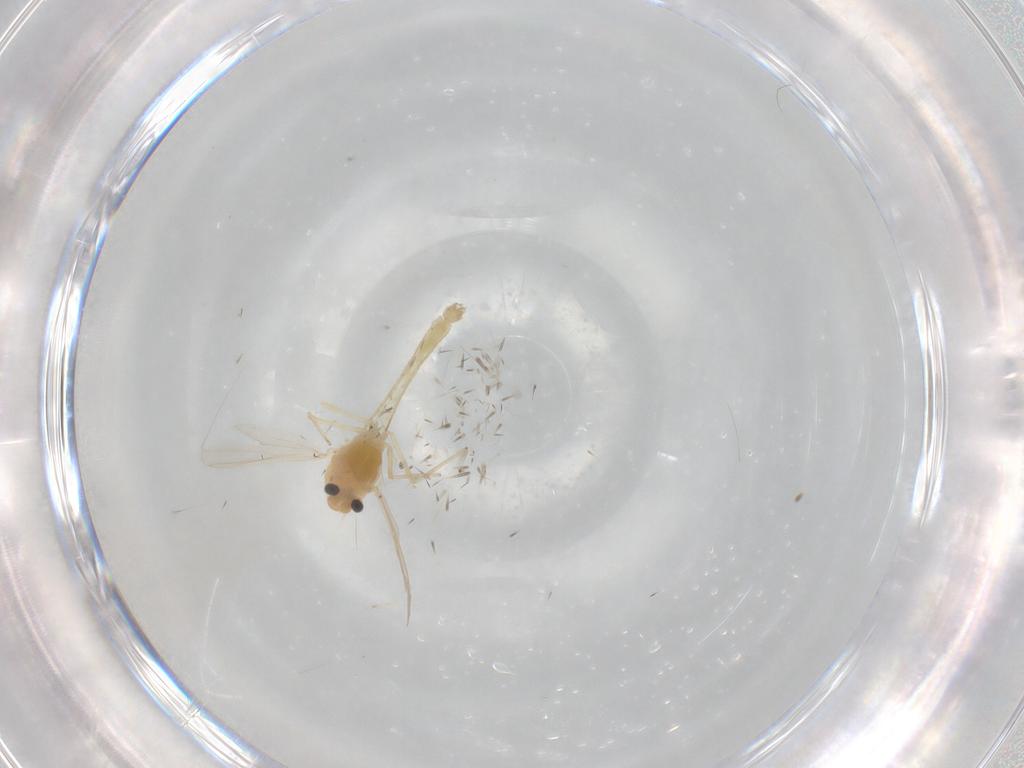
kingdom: Animalia
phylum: Arthropoda
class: Insecta
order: Diptera
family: Chironomidae
